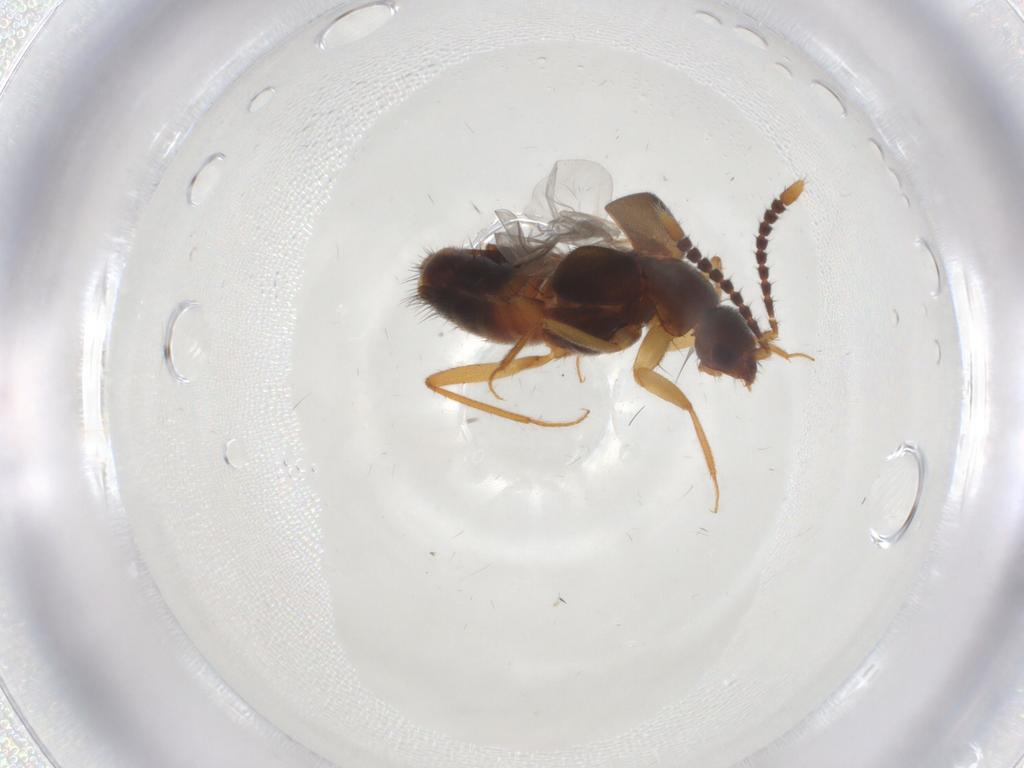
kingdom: Animalia
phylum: Arthropoda
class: Insecta
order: Coleoptera
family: Staphylinidae
